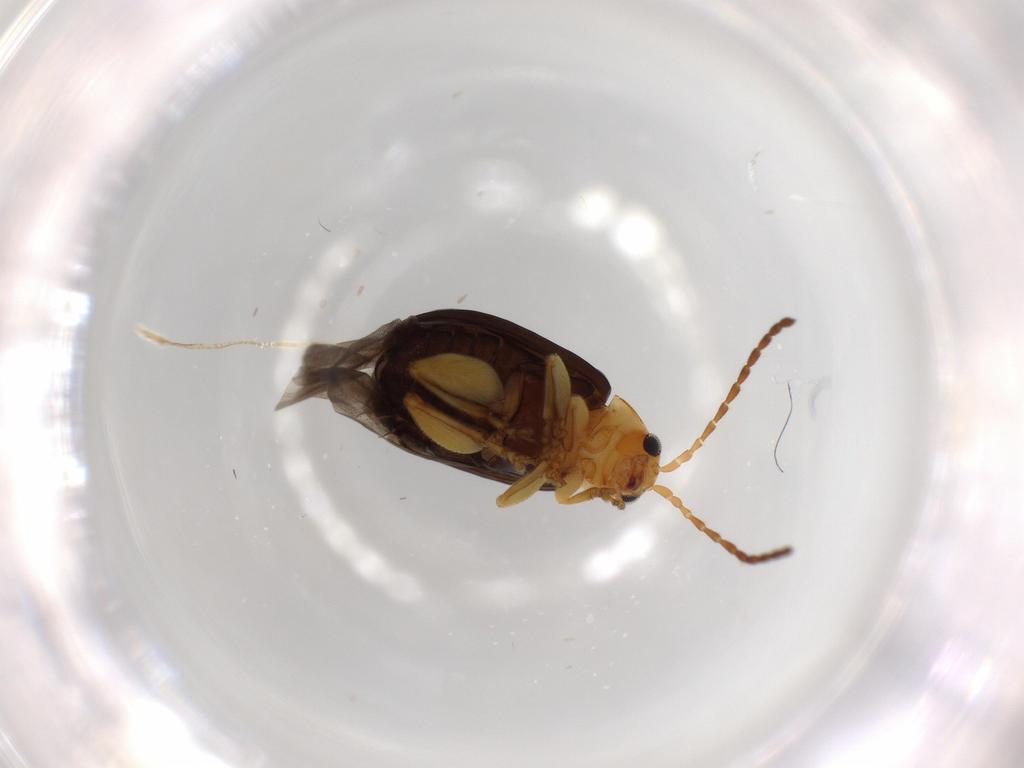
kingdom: Animalia
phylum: Arthropoda
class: Insecta
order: Coleoptera
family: Chrysomelidae
